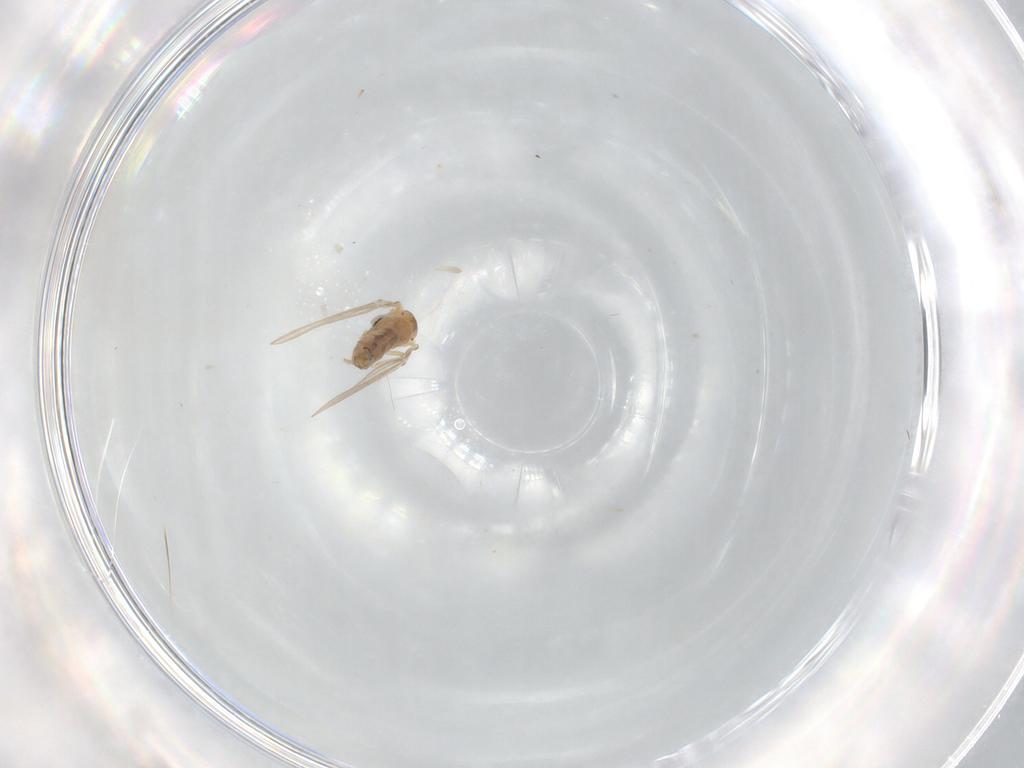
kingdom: Animalia
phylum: Arthropoda
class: Insecta
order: Diptera
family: Psychodidae
